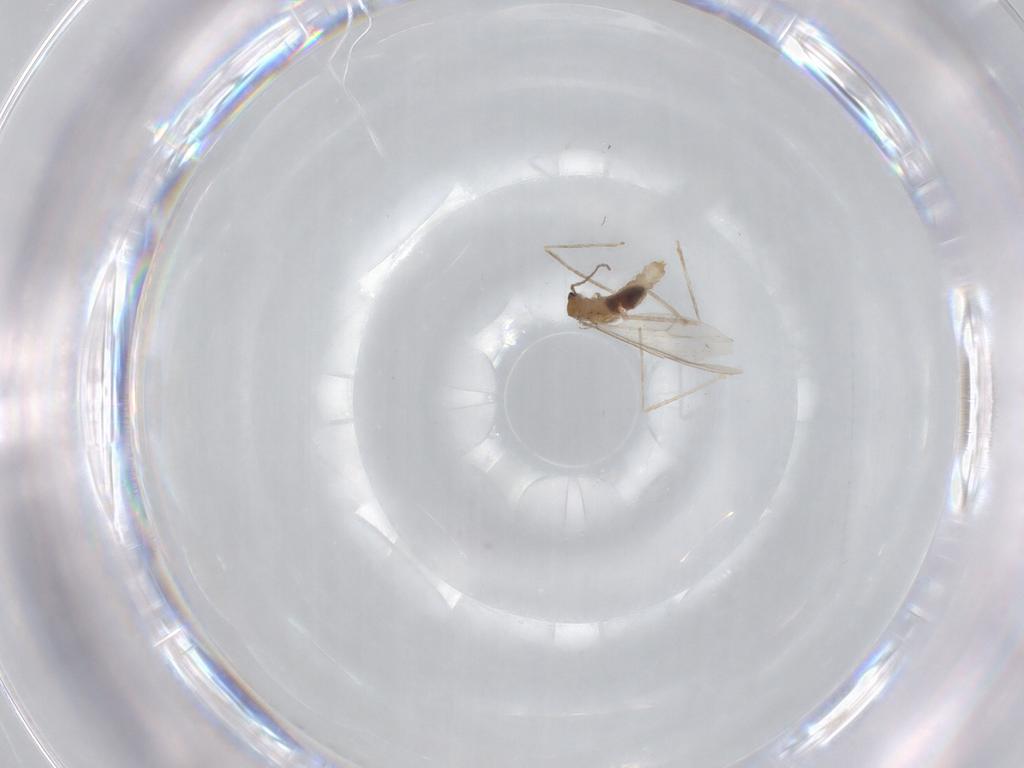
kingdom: Animalia
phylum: Arthropoda
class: Insecta
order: Diptera
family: Cecidomyiidae
